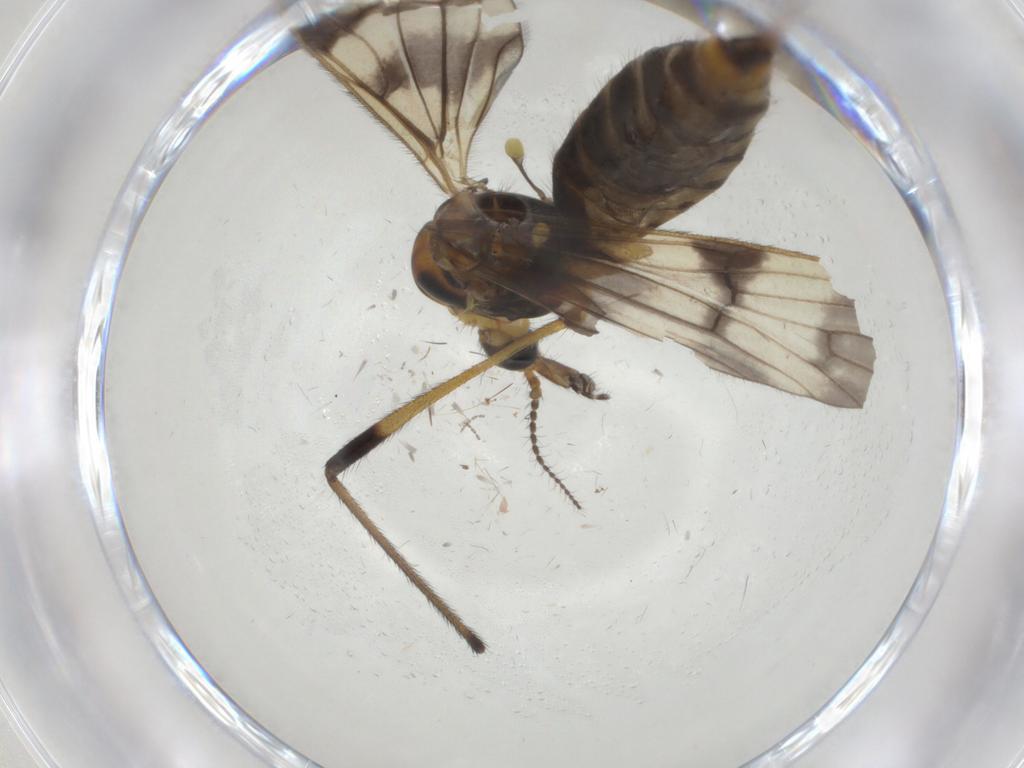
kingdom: Animalia
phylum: Arthropoda
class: Insecta
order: Diptera
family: Limoniidae
